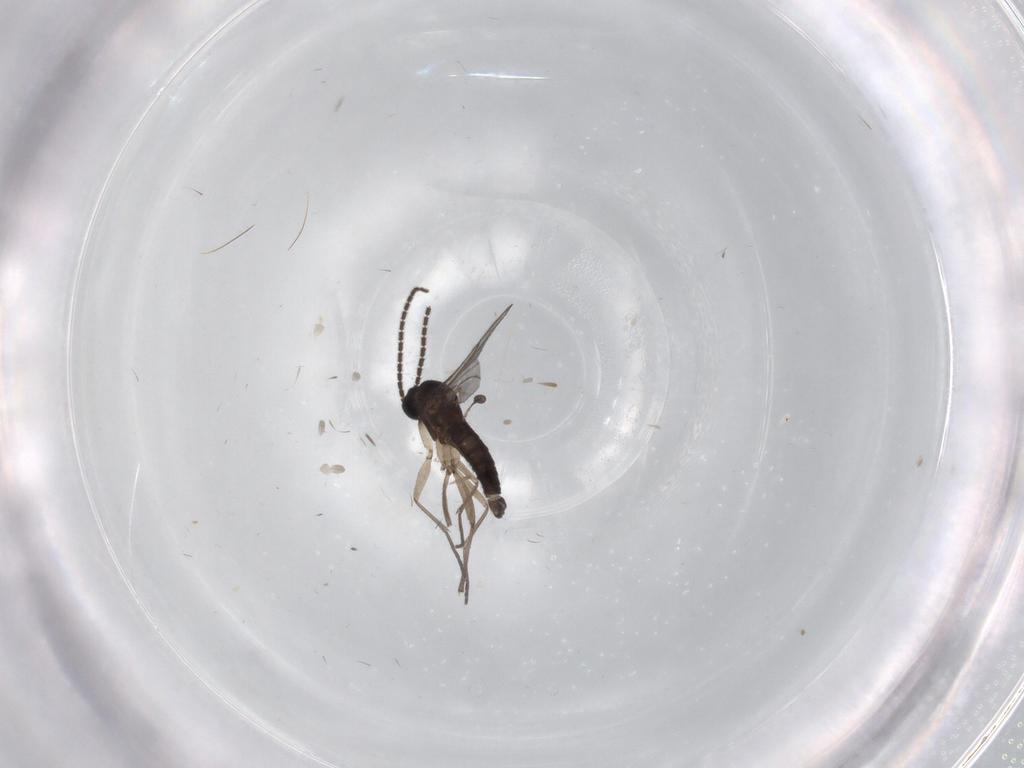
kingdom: Animalia
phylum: Arthropoda
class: Insecta
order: Diptera
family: Sciaridae
